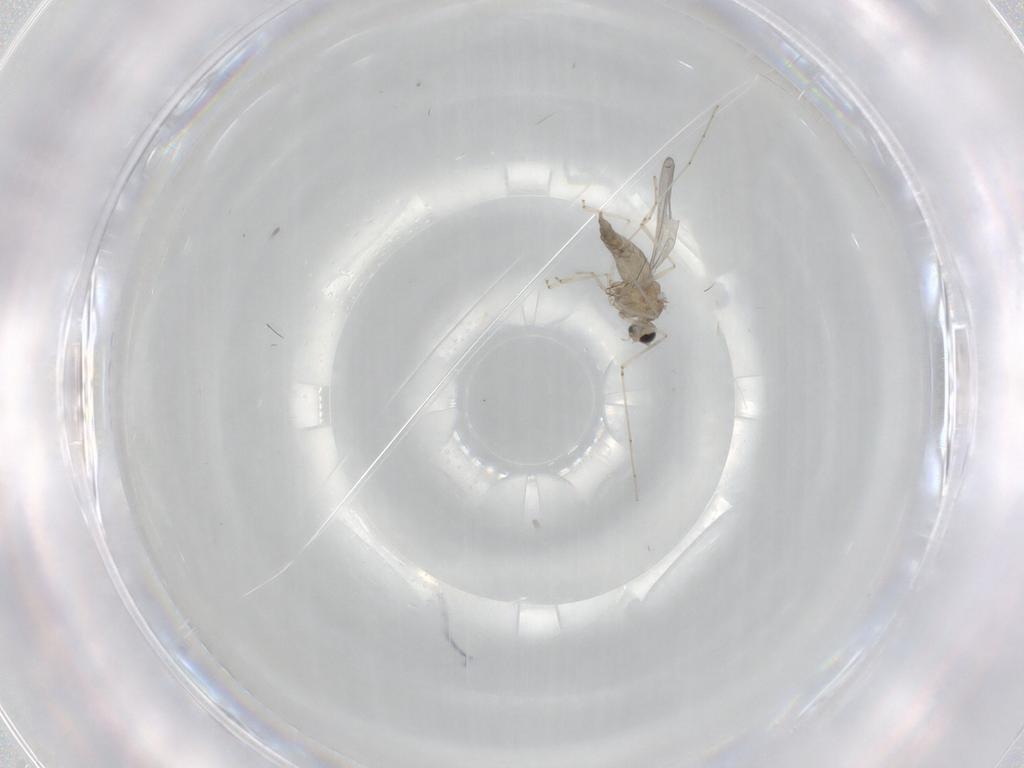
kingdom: Animalia
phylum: Arthropoda
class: Insecta
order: Diptera
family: Cecidomyiidae
